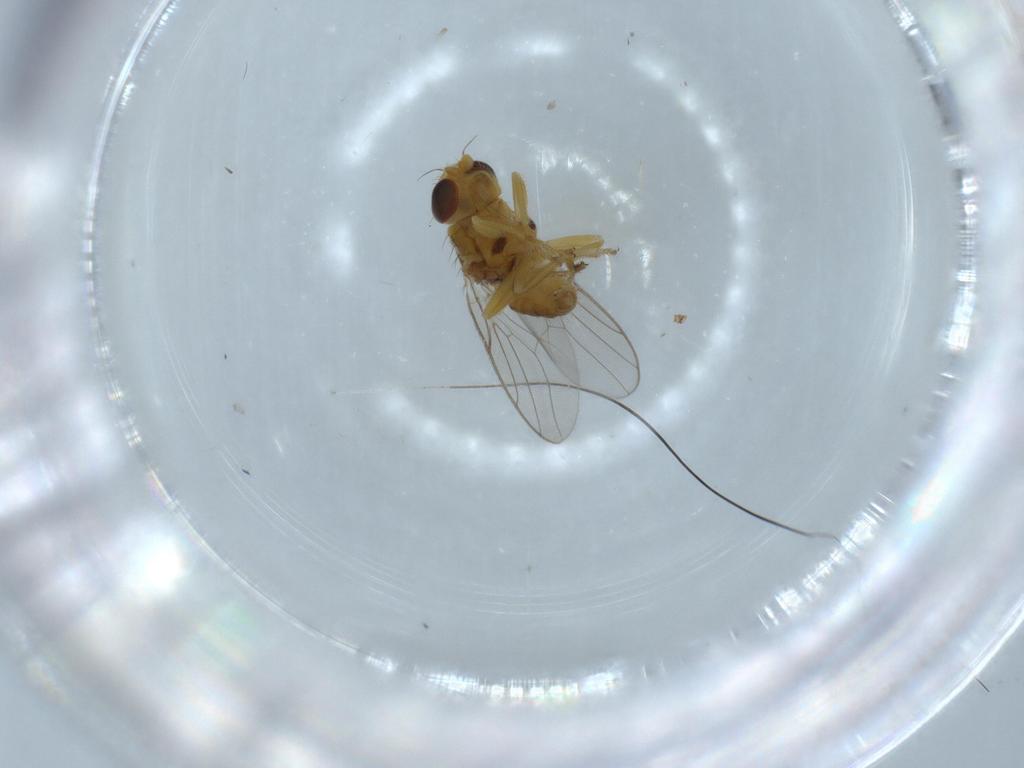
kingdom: Animalia
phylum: Arthropoda
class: Insecta
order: Diptera
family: Chloropidae
